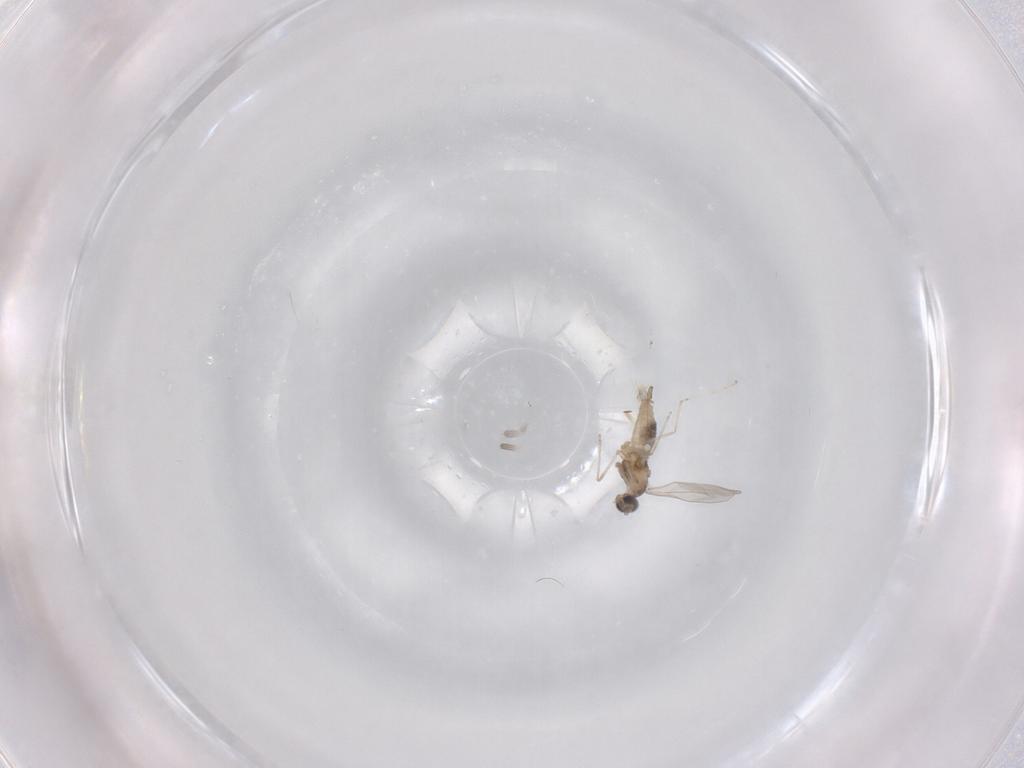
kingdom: Animalia
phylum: Arthropoda
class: Insecta
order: Diptera
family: Cecidomyiidae
